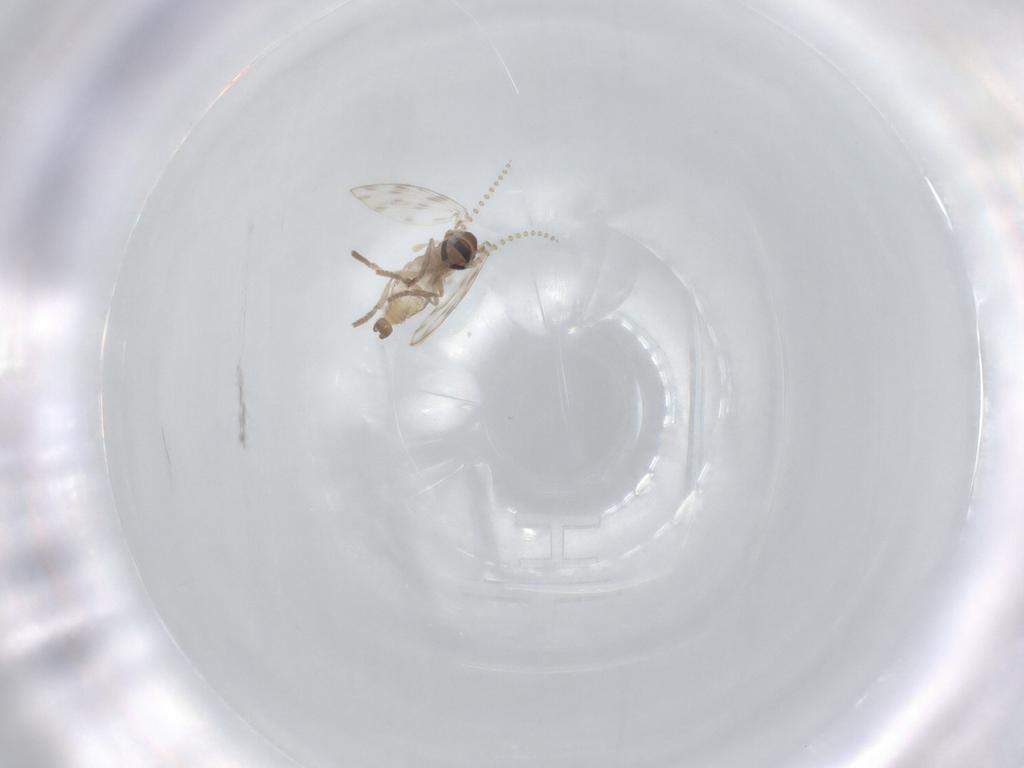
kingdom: Animalia
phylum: Arthropoda
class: Insecta
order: Diptera
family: Psychodidae
